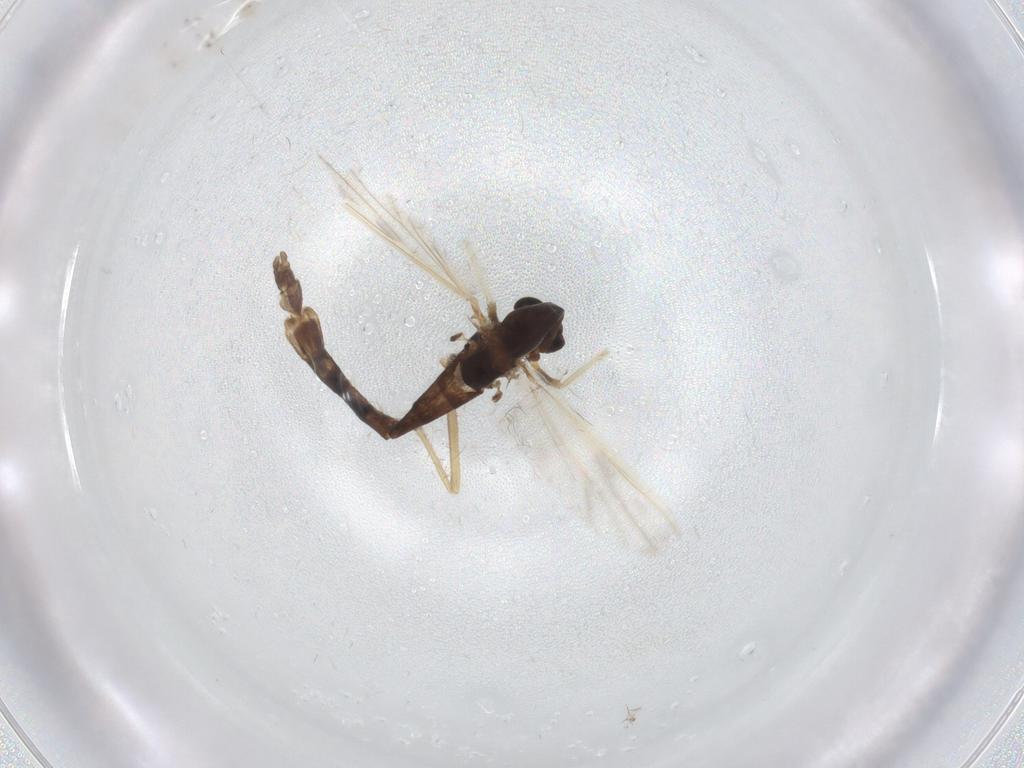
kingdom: Animalia
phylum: Arthropoda
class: Insecta
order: Diptera
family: Chironomidae
